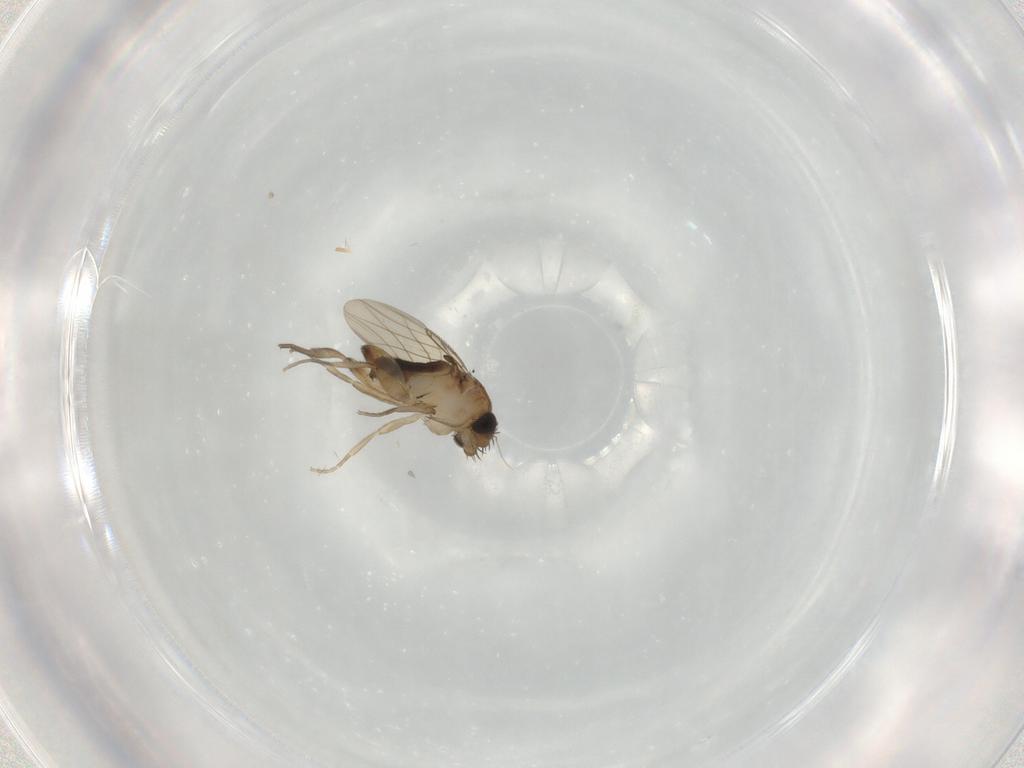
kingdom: Animalia
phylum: Arthropoda
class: Insecta
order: Diptera
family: Phoridae
